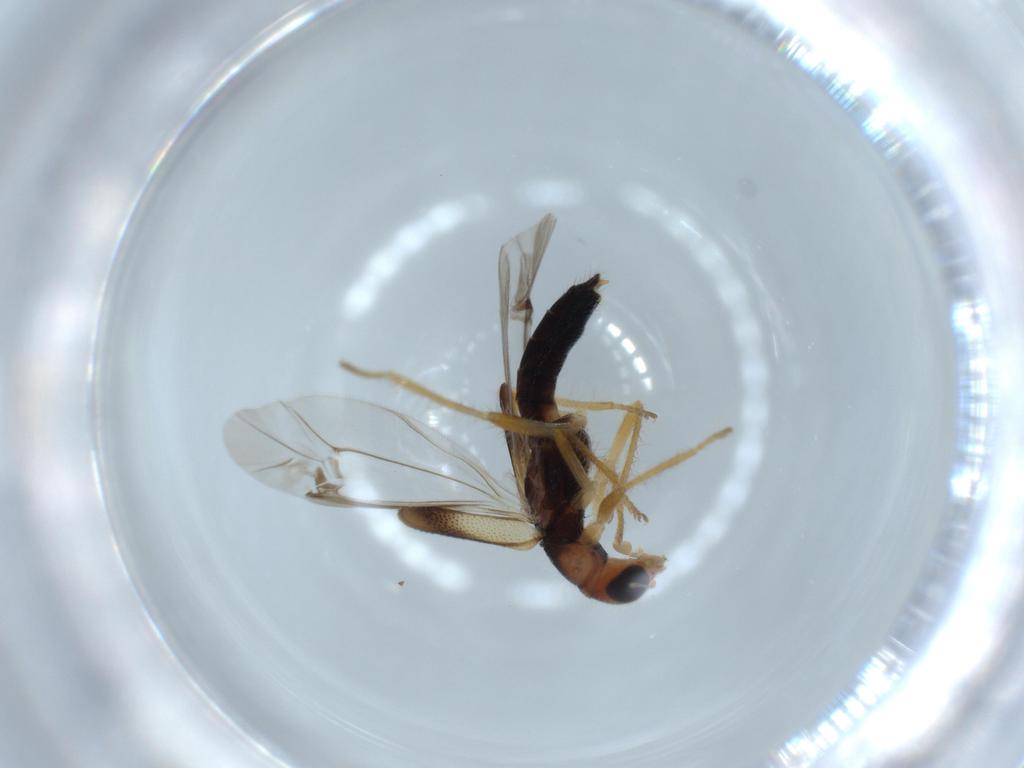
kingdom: Animalia
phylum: Arthropoda
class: Insecta
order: Coleoptera
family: Cleridae
